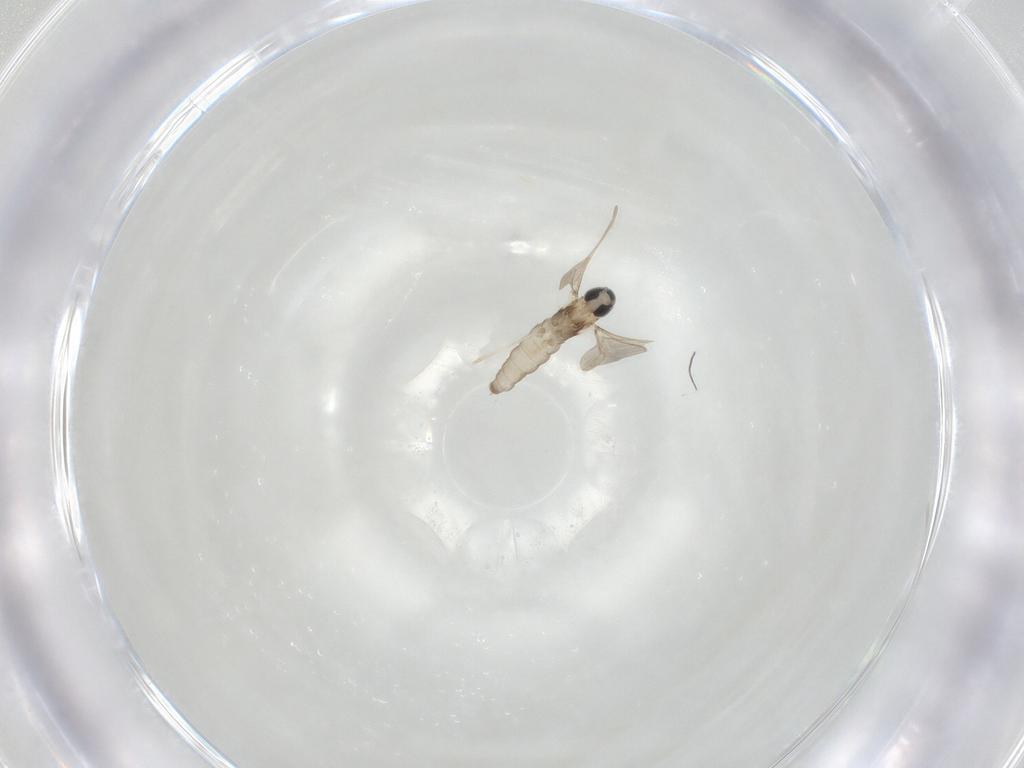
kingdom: Animalia
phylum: Arthropoda
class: Insecta
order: Diptera
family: Cecidomyiidae
